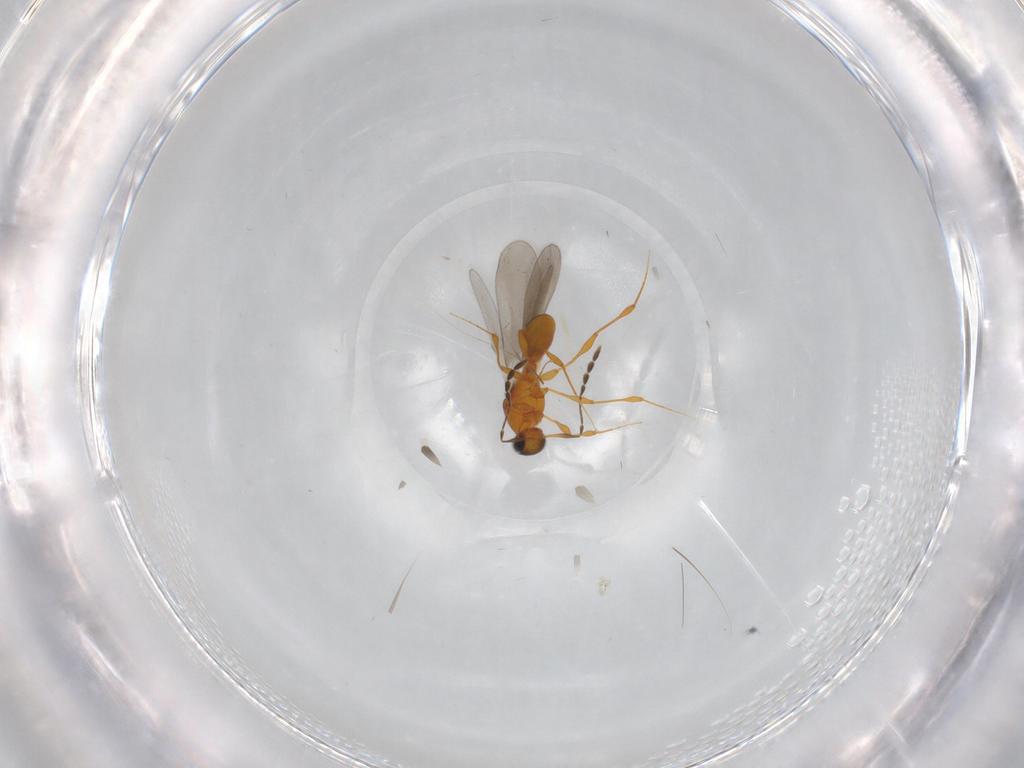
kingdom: Animalia
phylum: Arthropoda
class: Insecta
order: Hymenoptera
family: Platygastridae
